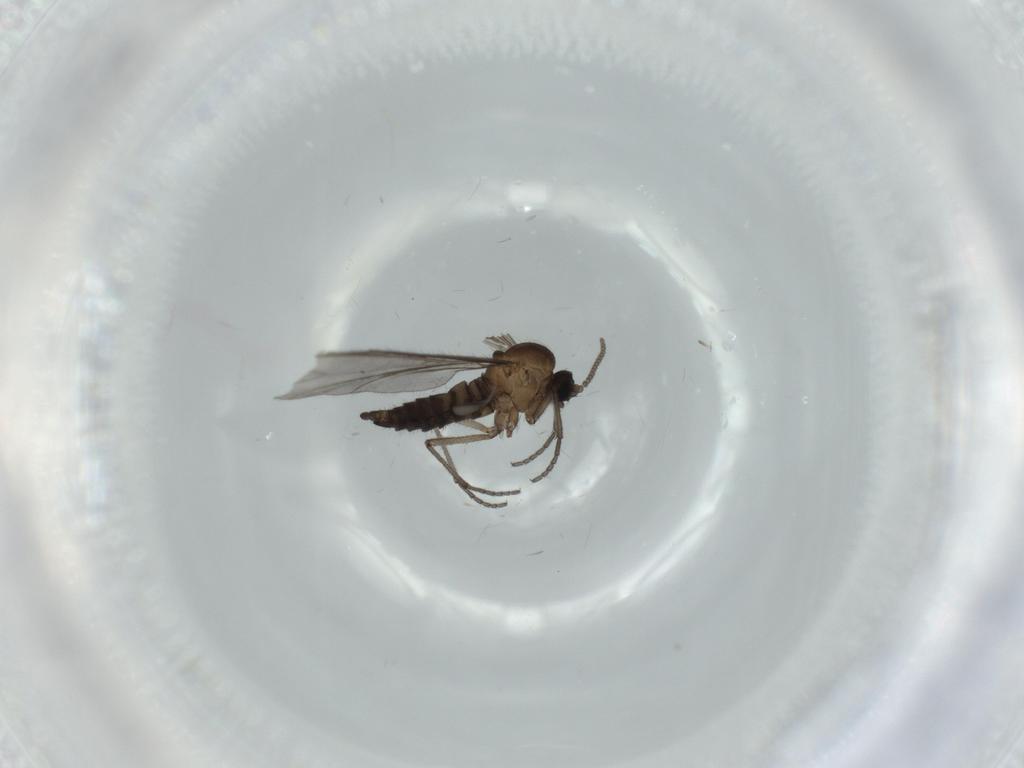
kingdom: Animalia
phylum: Arthropoda
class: Insecta
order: Diptera
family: Sciaridae
